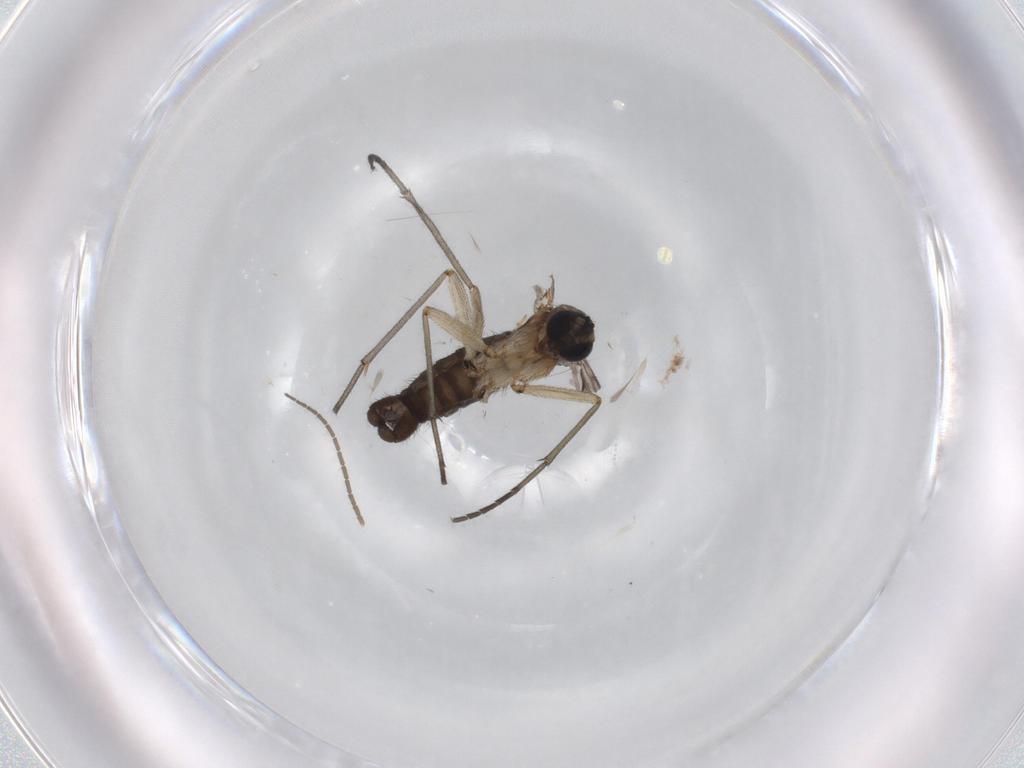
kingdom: Animalia
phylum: Arthropoda
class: Insecta
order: Diptera
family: Sciaridae
